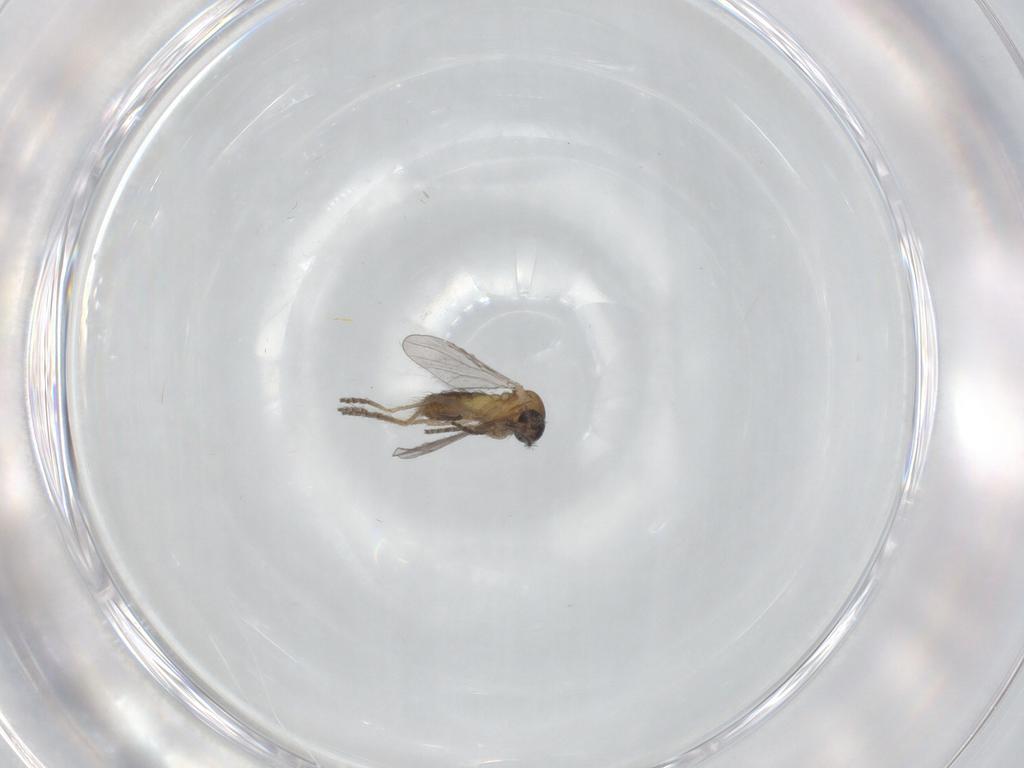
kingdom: Animalia
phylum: Arthropoda
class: Insecta
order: Diptera
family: Ceratopogonidae
